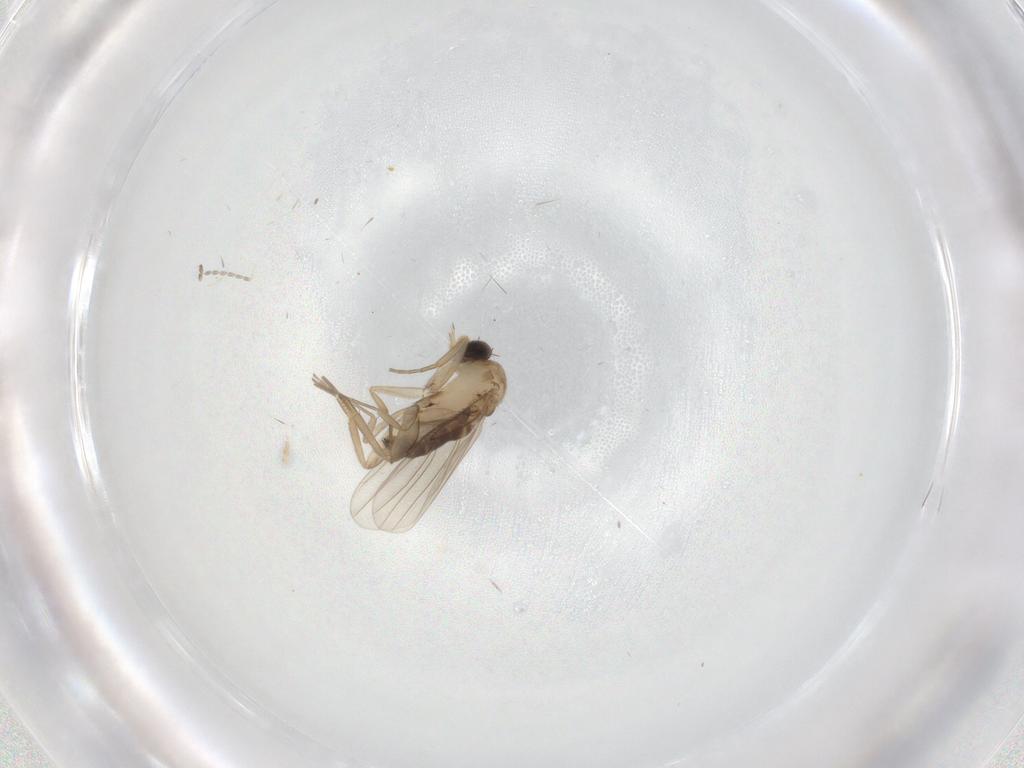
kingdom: Animalia
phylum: Arthropoda
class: Insecta
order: Diptera
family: Phoridae
